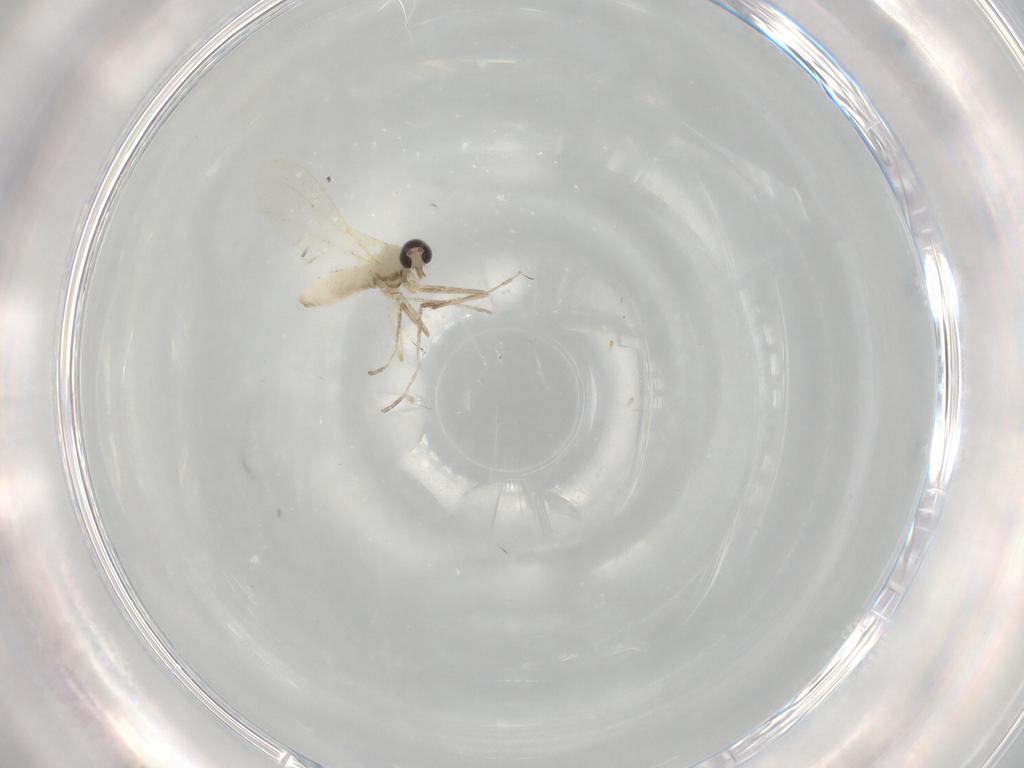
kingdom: Animalia
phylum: Arthropoda
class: Insecta
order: Diptera
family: Cecidomyiidae
